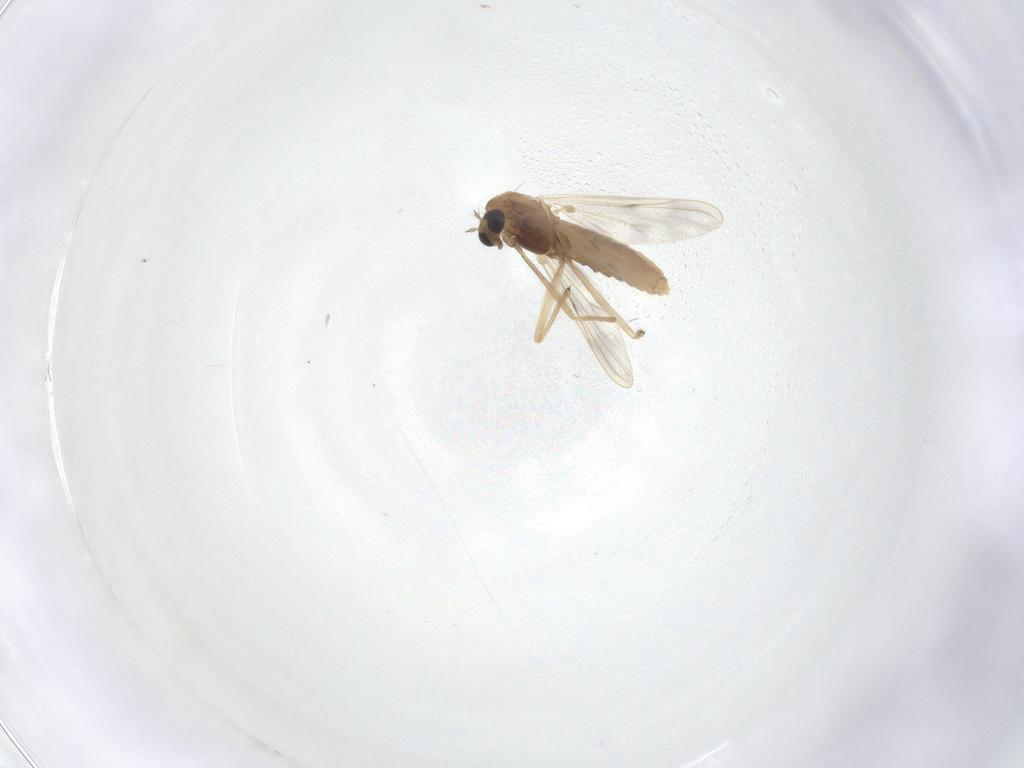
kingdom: Animalia
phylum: Arthropoda
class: Insecta
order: Diptera
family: Chironomidae
